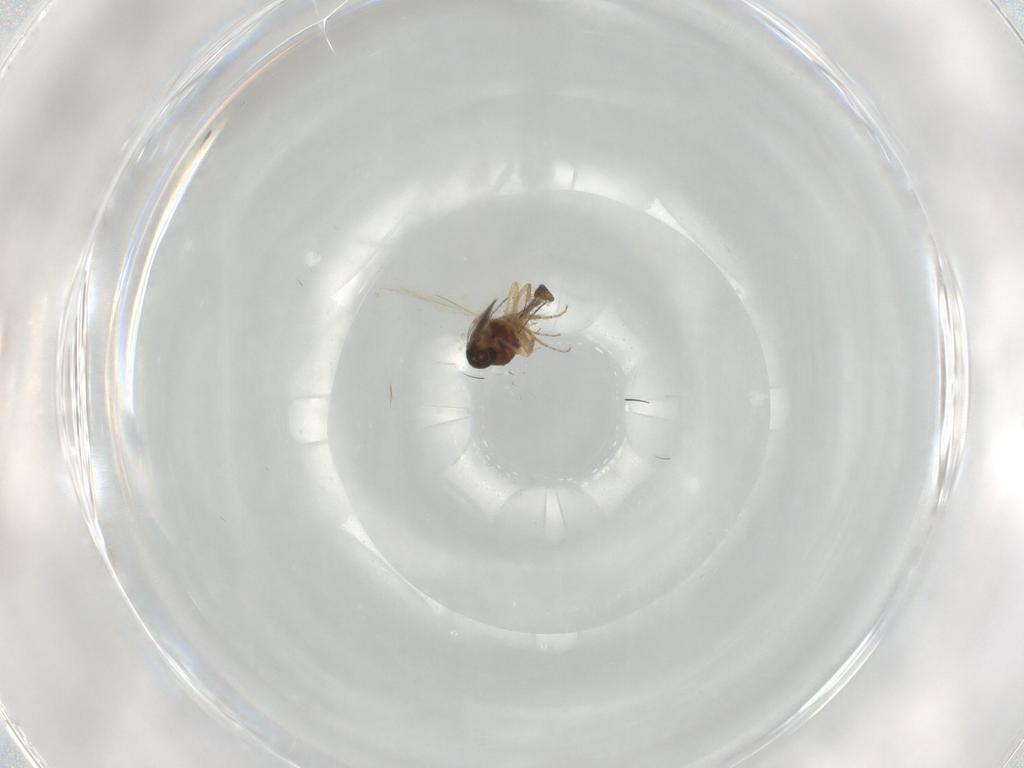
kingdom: Animalia
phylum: Arthropoda
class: Insecta
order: Diptera
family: Ceratopogonidae
